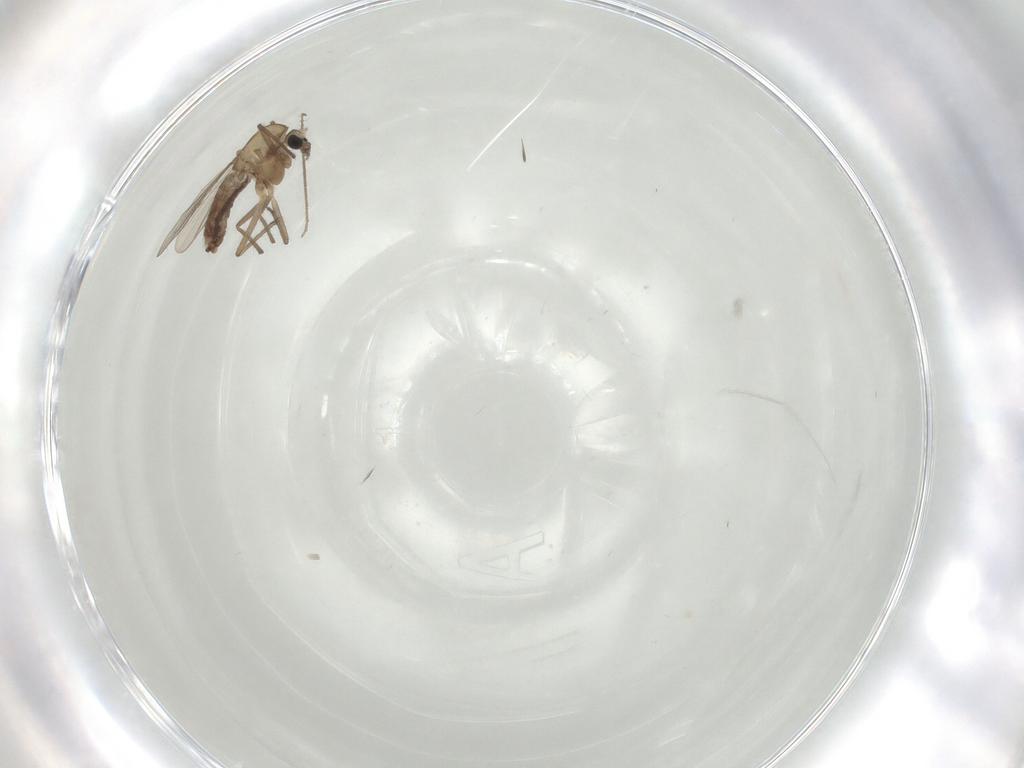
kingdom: Animalia
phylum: Arthropoda
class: Insecta
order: Diptera
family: Chironomidae
